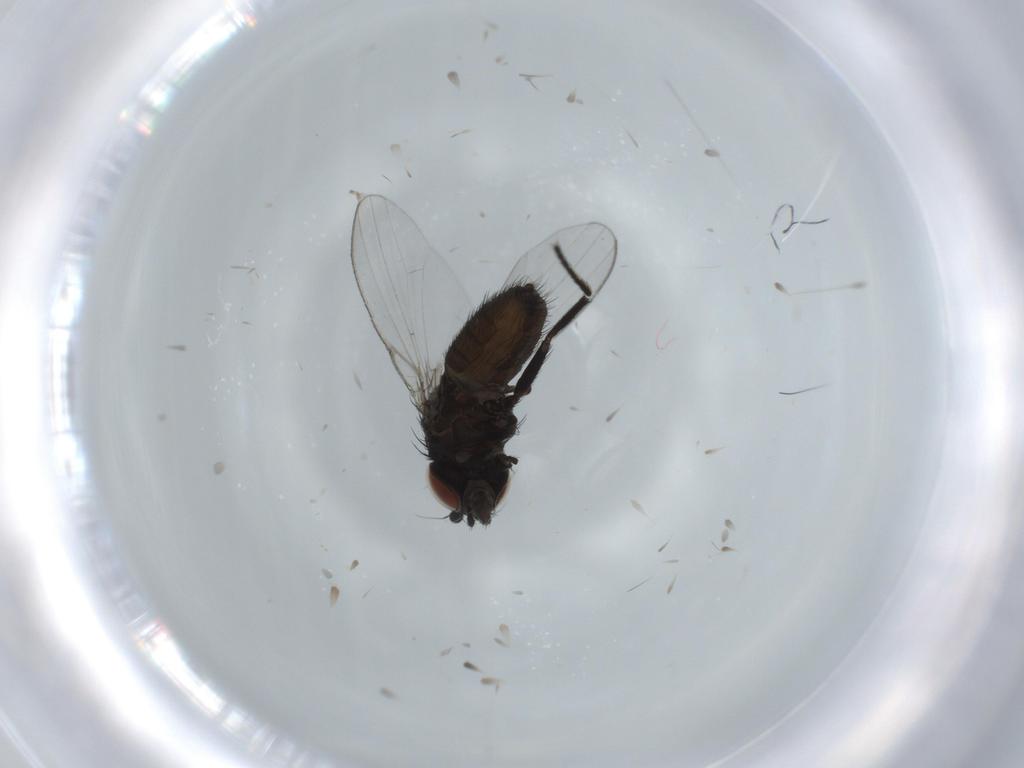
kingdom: Animalia
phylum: Arthropoda
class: Insecta
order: Diptera
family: Milichiidae
